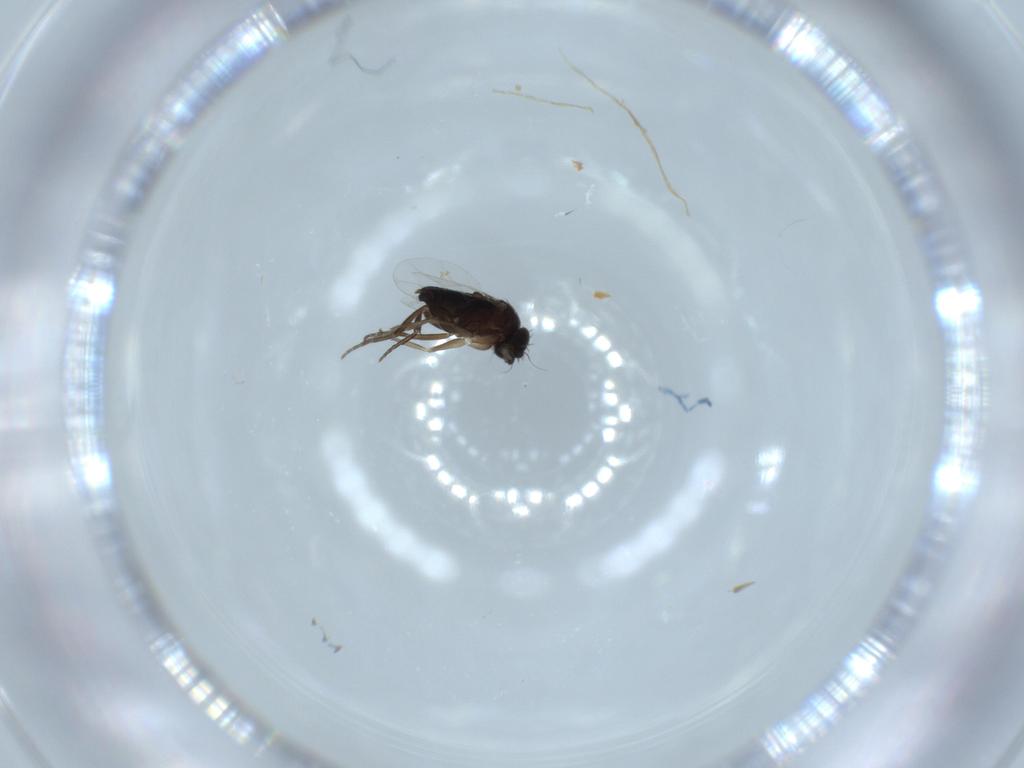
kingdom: Animalia
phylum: Arthropoda
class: Insecta
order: Diptera
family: Phoridae
